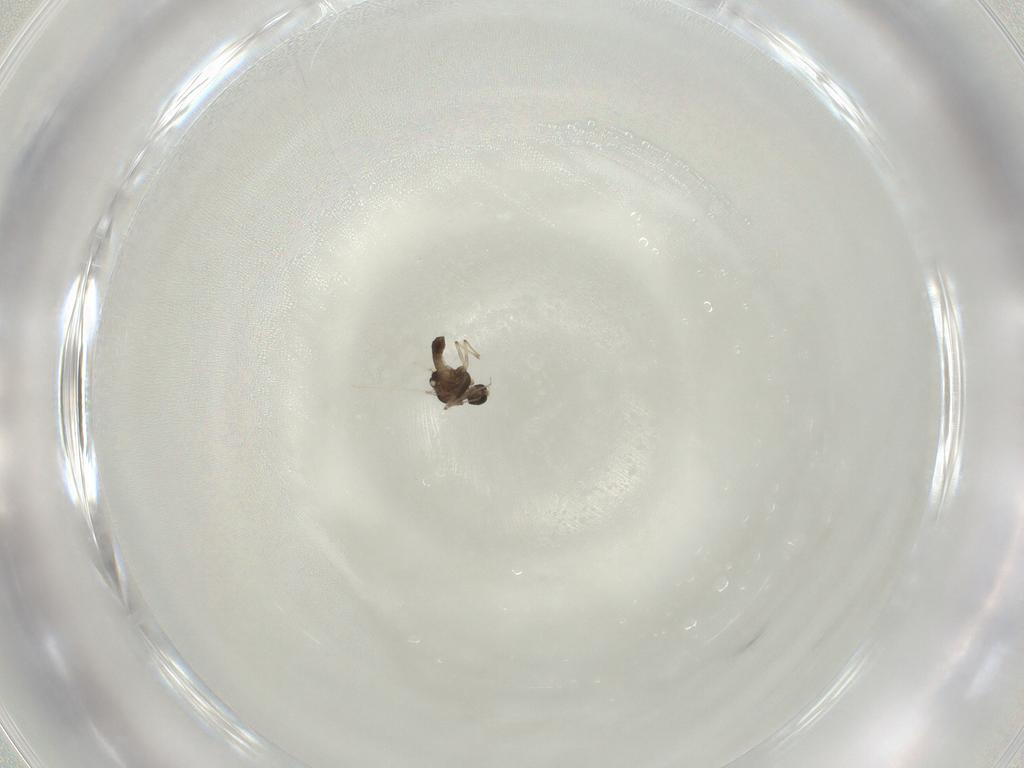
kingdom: Animalia
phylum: Arthropoda
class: Insecta
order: Diptera
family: Chironomidae
